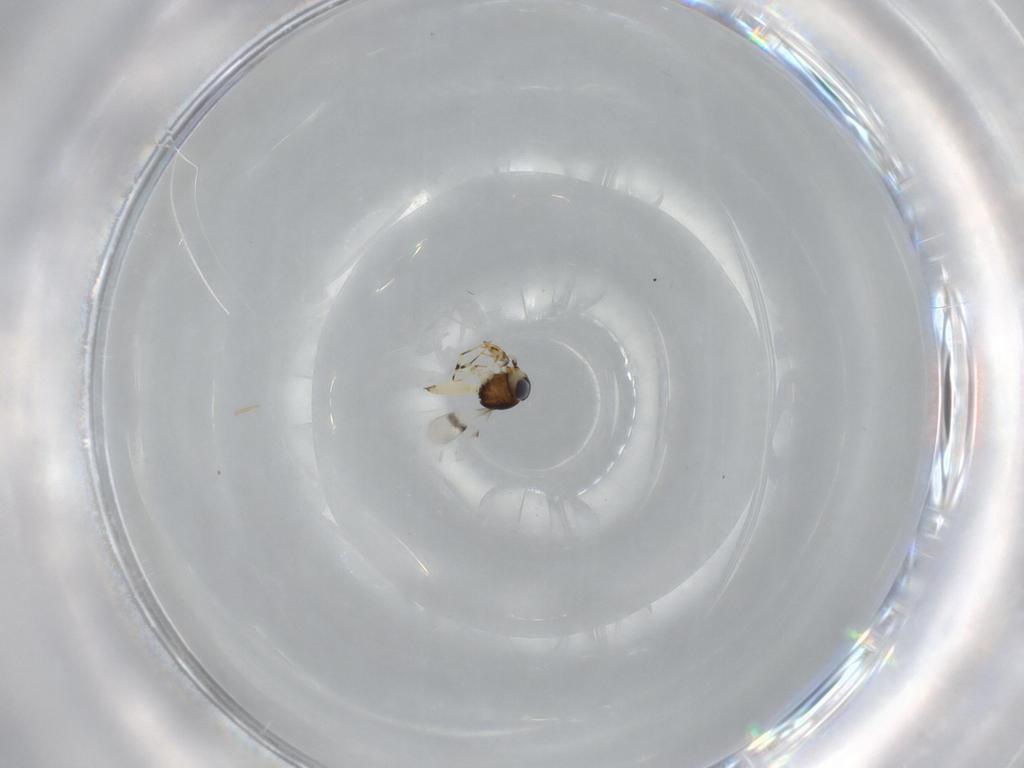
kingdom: Animalia
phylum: Arthropoda
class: Insecta
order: Hymenoptera
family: Scelionidae
